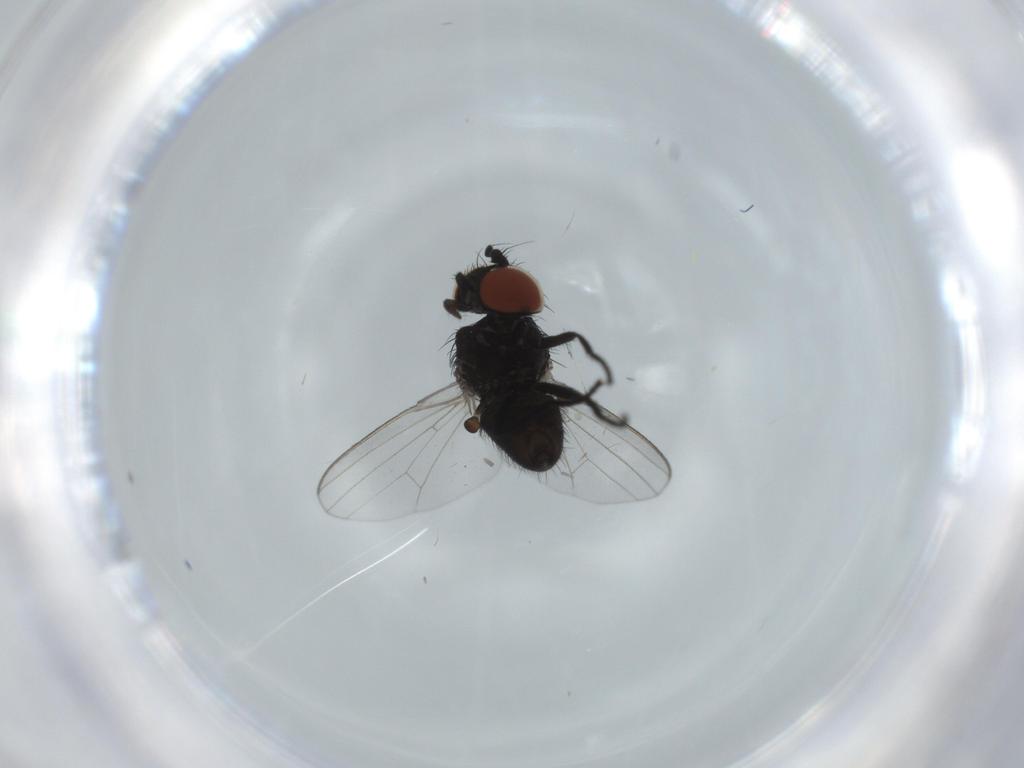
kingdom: Animalia
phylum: Arthropoda
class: Insecta
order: Diptera
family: Milichiidae
